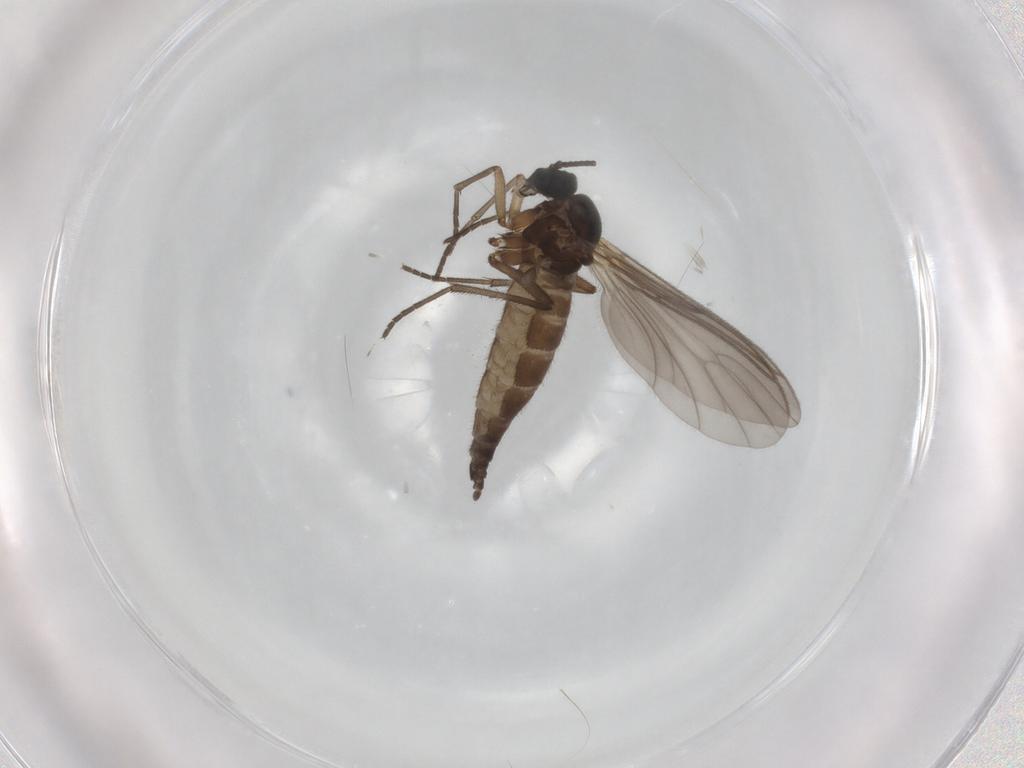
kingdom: Animalia
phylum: Arthropoda
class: Insecta
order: Diptera
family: Sciaridae
